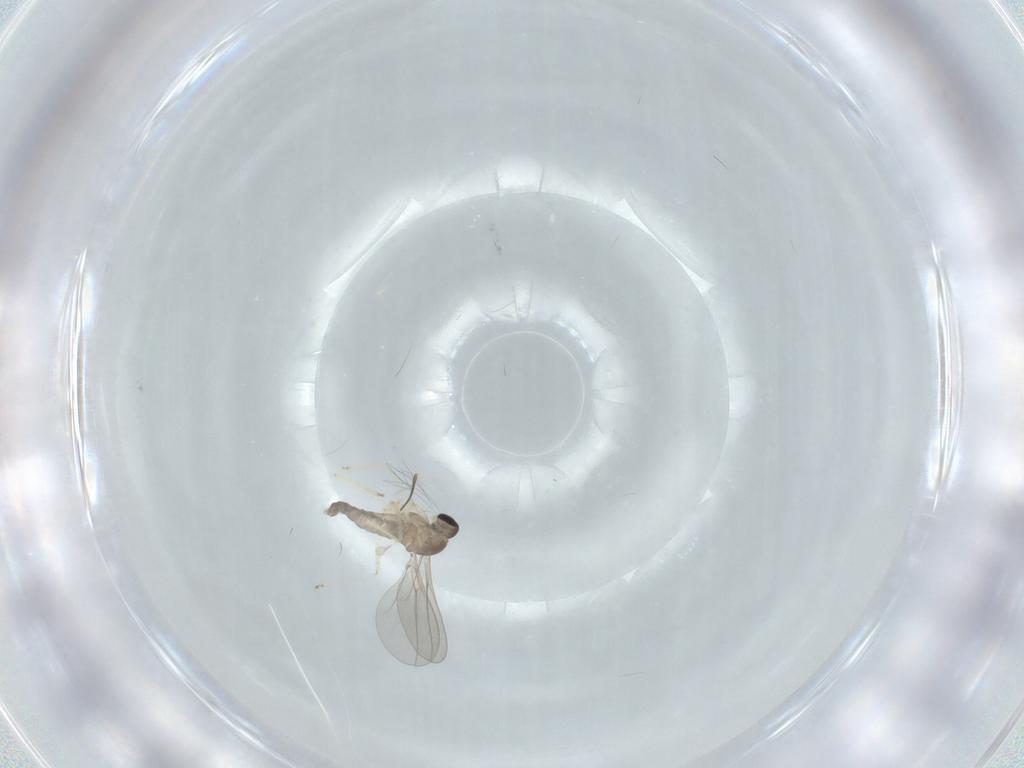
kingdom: Animalia
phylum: Arthropoda
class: Insecta
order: Diptera
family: Cecidomyiidae
